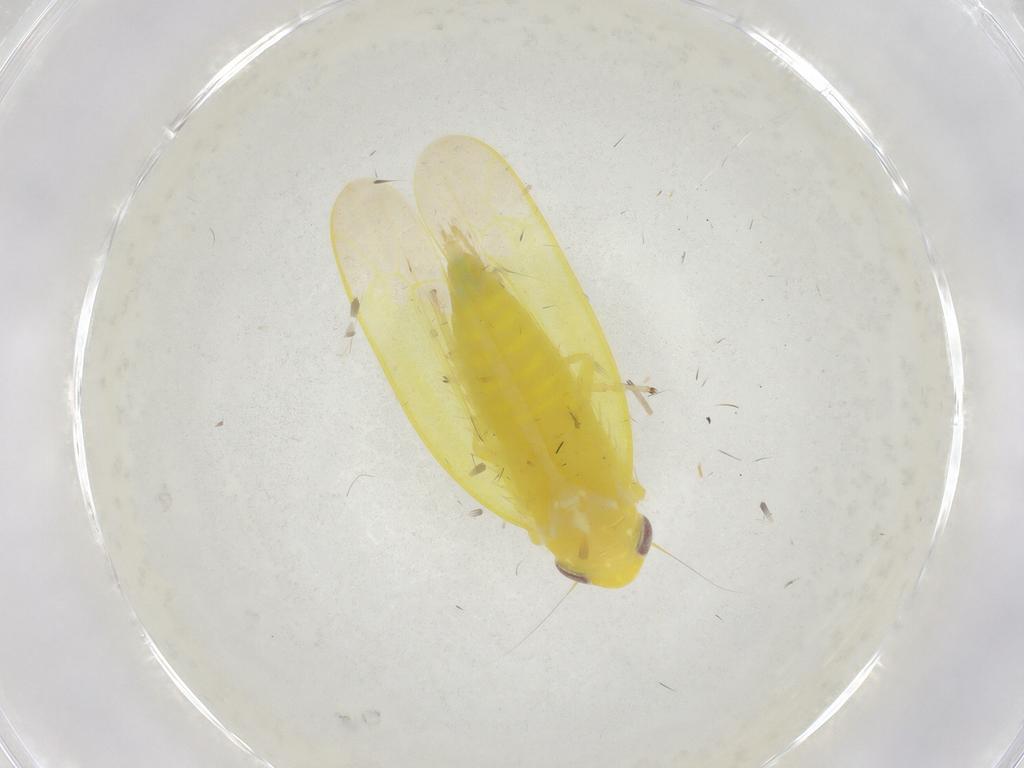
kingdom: Animalia
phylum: Arthropoda
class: Insecta
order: Hemiptera
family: Cicadellidae
